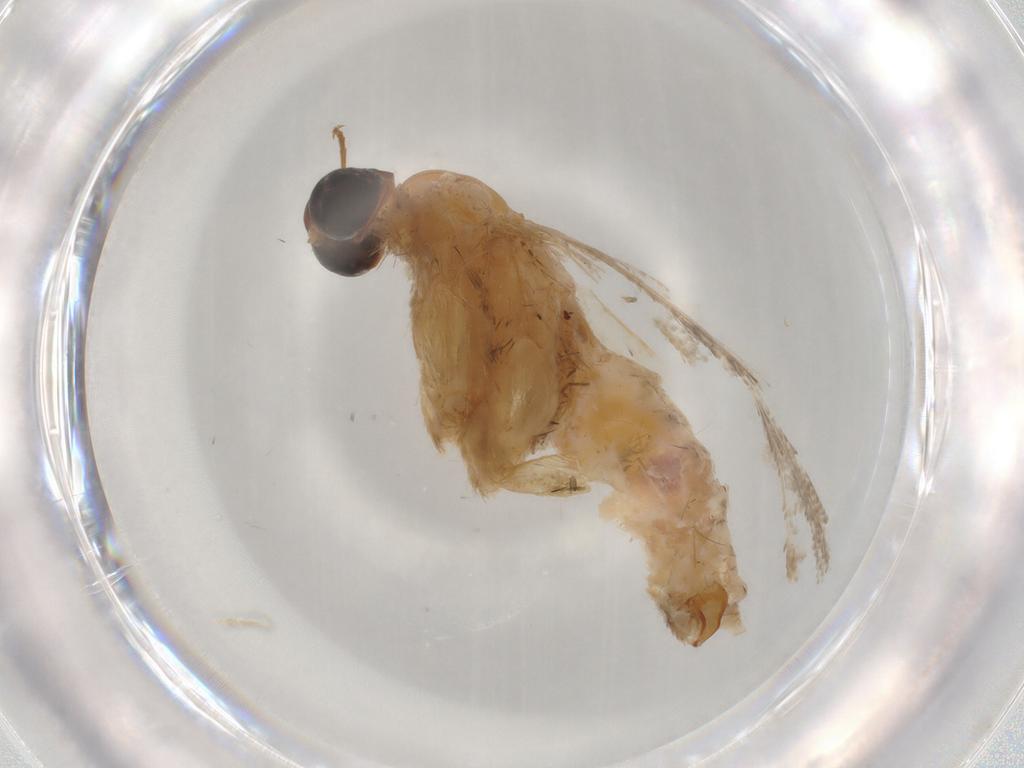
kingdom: Animalia
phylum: Arthropoda
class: Insecta
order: Lepidoptera
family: Tortricidae
